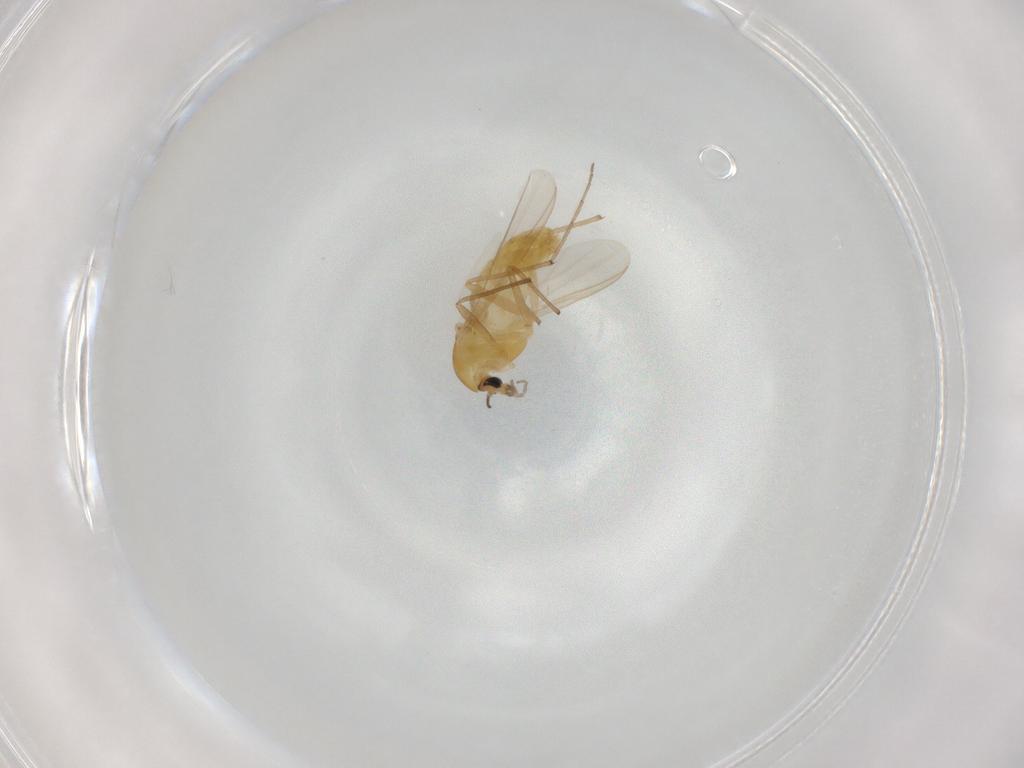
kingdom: Animalia
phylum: Arthropoda
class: Insecta
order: Diptera
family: Chironomidae
